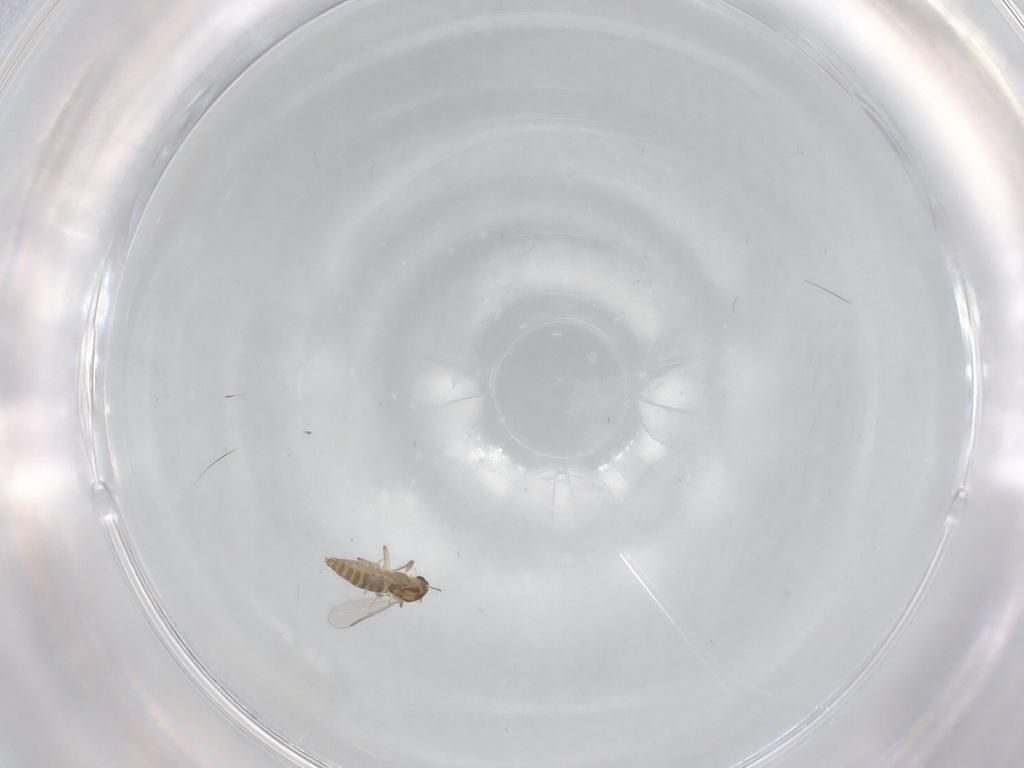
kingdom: Animalia
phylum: Arthropoda
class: Insecta
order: Diptera
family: Chironomidae
